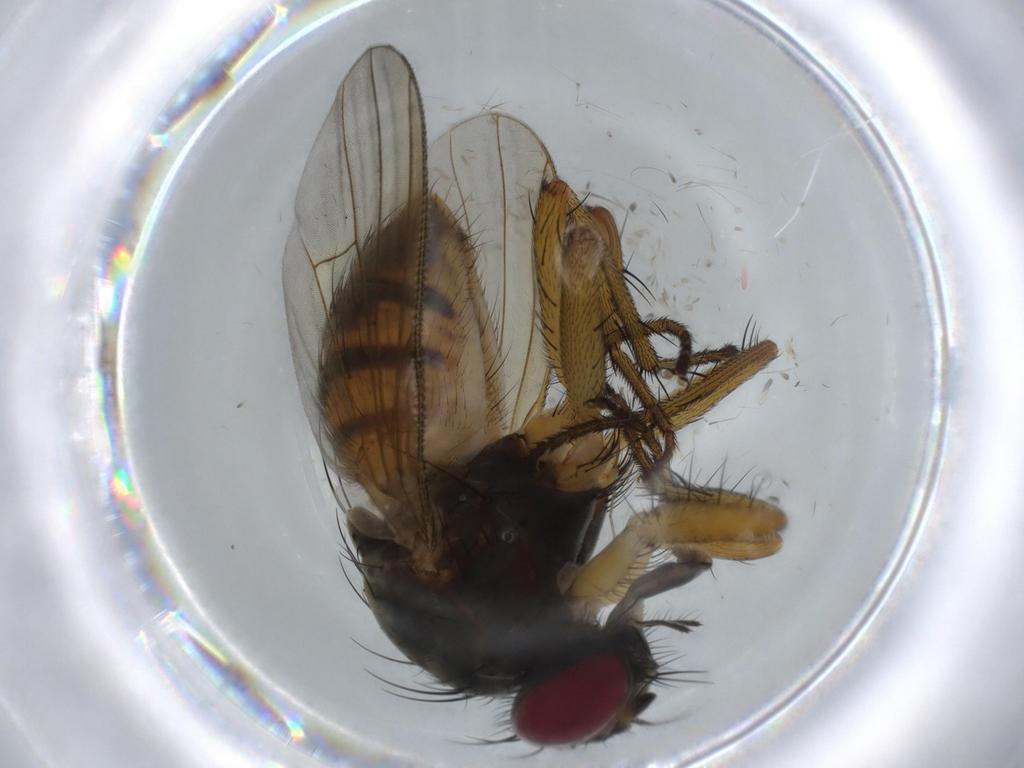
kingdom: Animalia
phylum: Arthropoda
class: Insecta
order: Diptera
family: Muscidae
